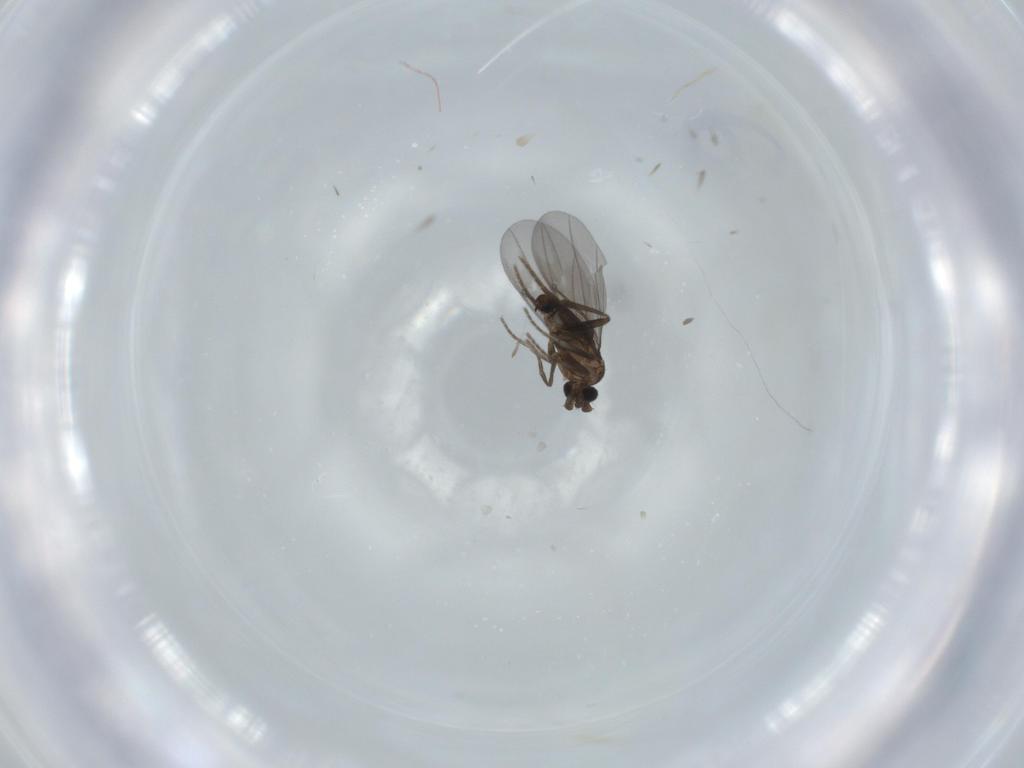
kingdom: Animalia
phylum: Arthropoda
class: Insecta
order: Diptera
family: Phoridae
